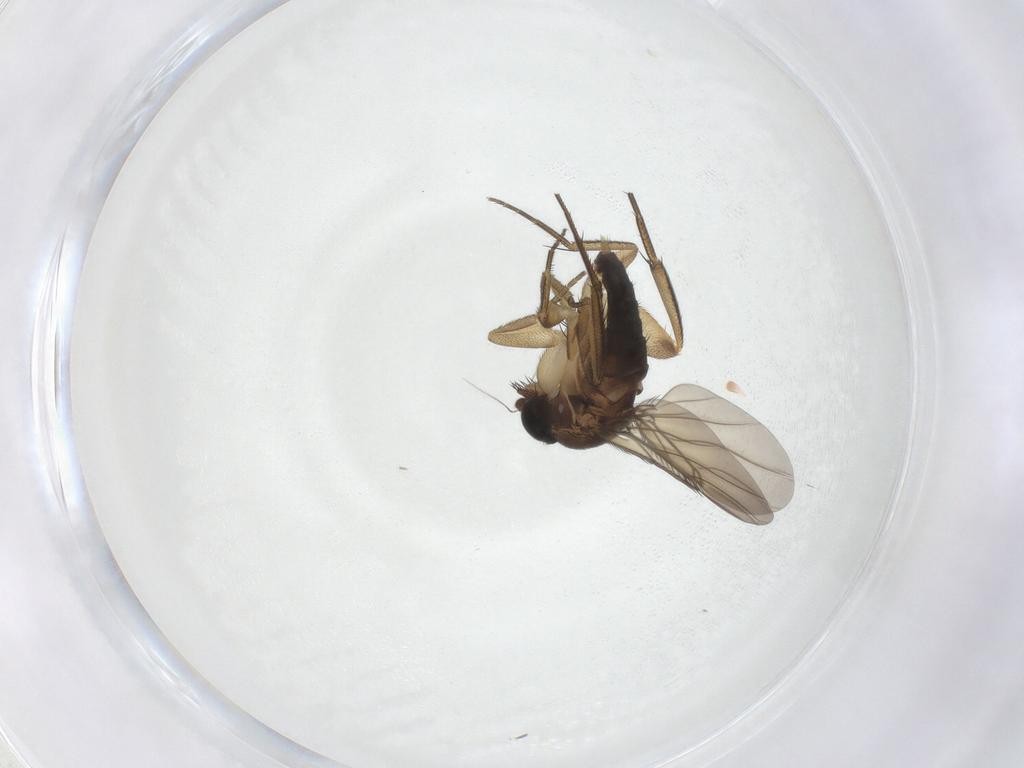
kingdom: Animalia
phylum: Arthropoda
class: Insecta
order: Diptera
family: Phoridae
